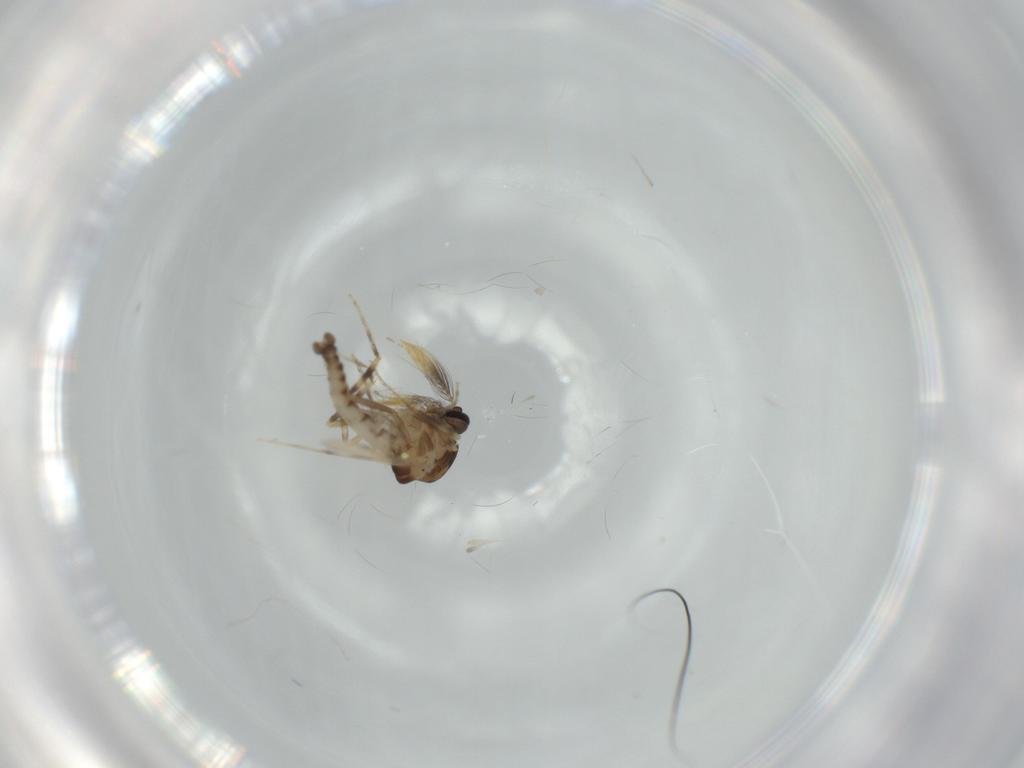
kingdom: Animalia
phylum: Arthropoda
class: Insecta
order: Diptera
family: Ceratopogonidae
